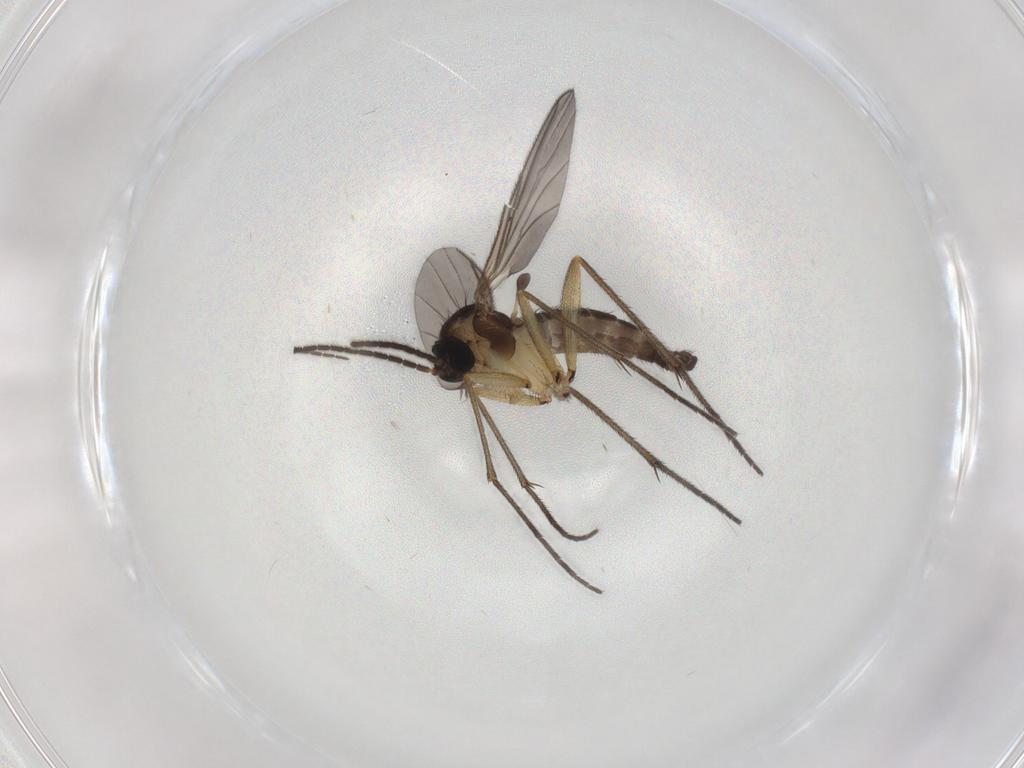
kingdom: Animalia
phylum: Arthropoda
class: Insecta
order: Diptera
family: Sciaridae
